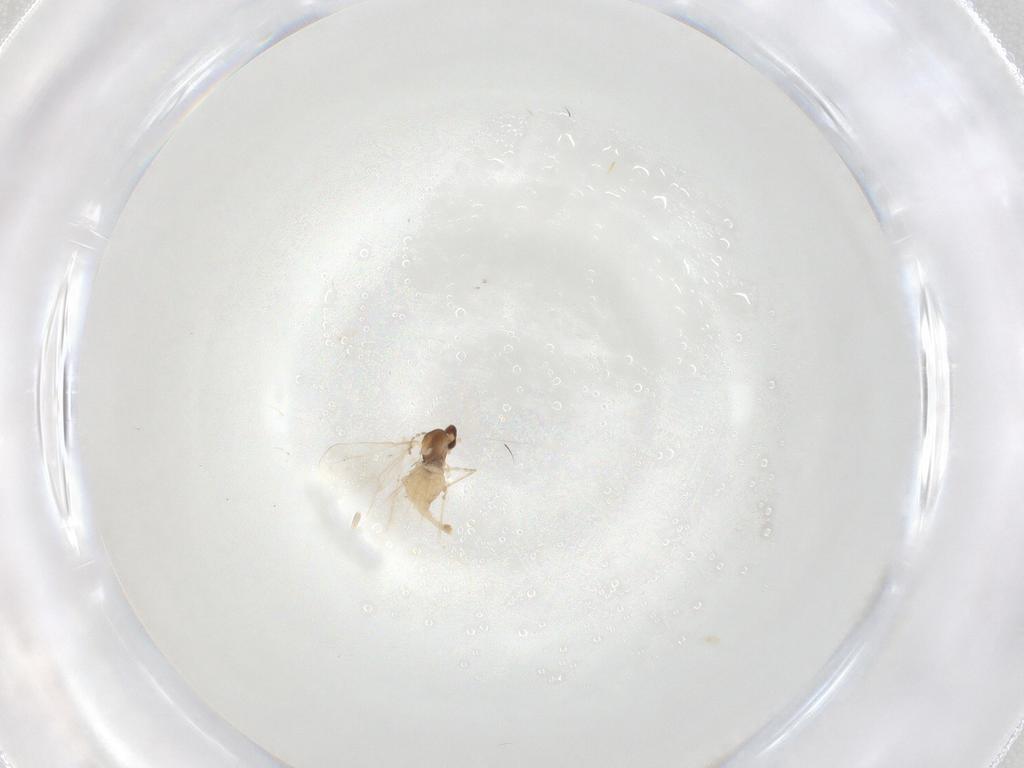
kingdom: Animalia
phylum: Arthropoda
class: Insecta
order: Diptera
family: Cecidomyiidae
